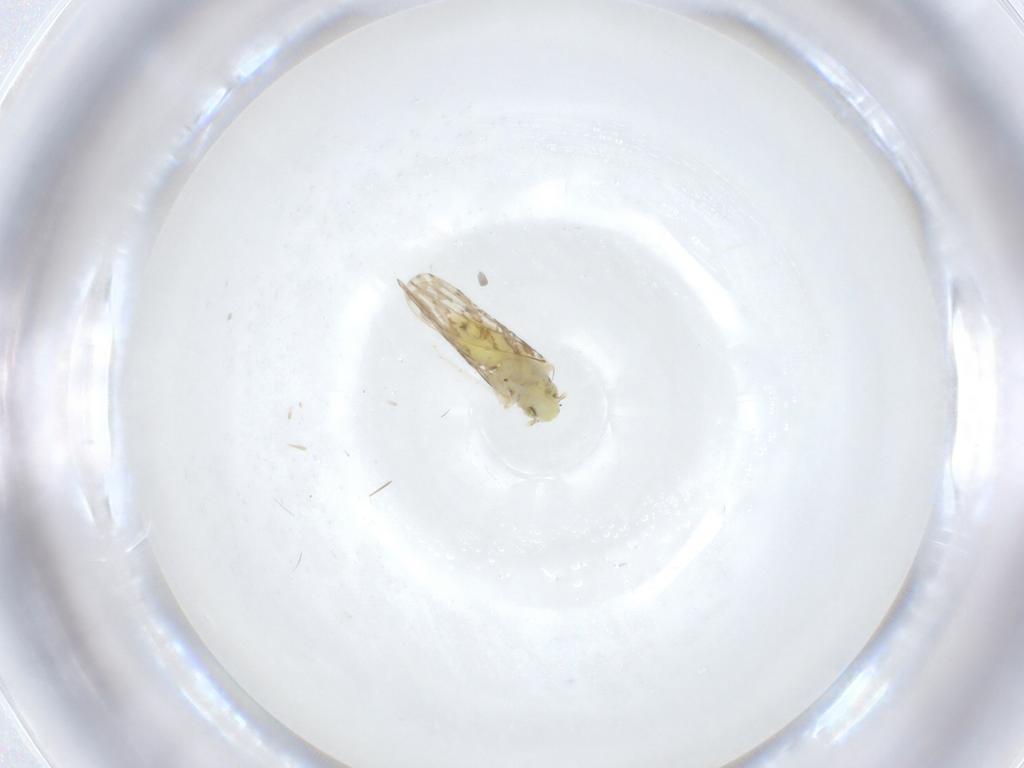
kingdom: Animalia
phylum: Arthropoda
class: Insecta
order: Hemiptera
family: Aleyrodidae
